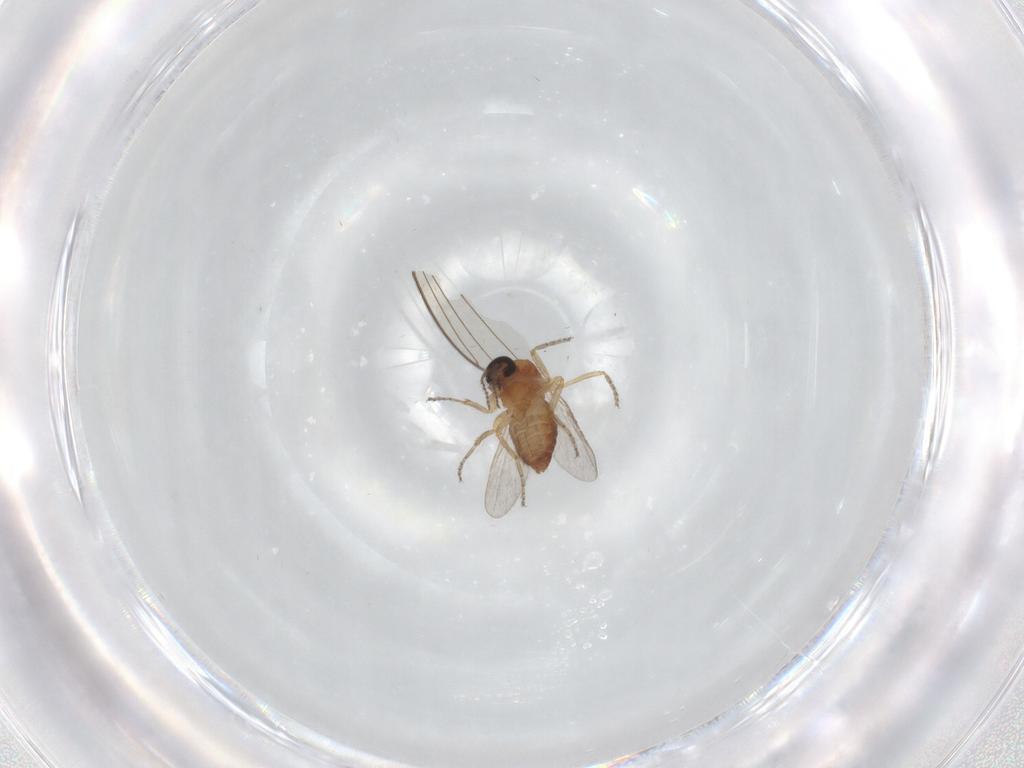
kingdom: Animalia
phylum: Arthropoda
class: Insecta
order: Diptera
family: Ceratopogonidae
